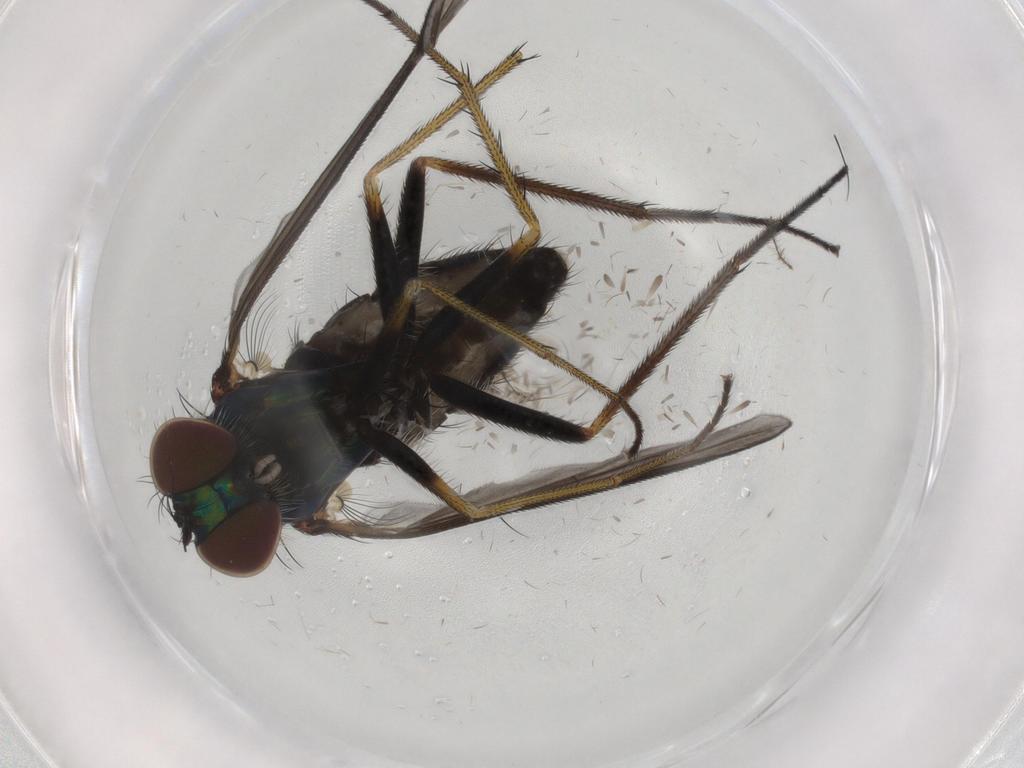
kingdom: Animalia
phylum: Arthropoda
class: Insecta
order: Diptera
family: Dolichopodidae
